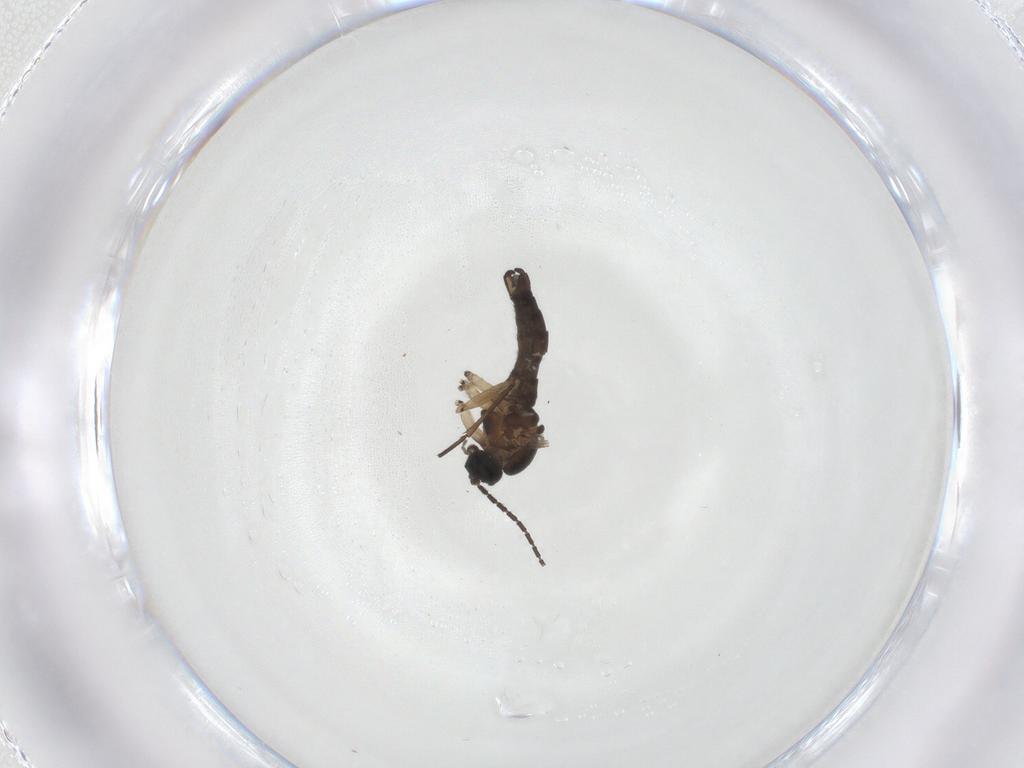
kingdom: Animalia
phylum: Arthropoda
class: Insecta
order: Diptera
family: Sciaridae
